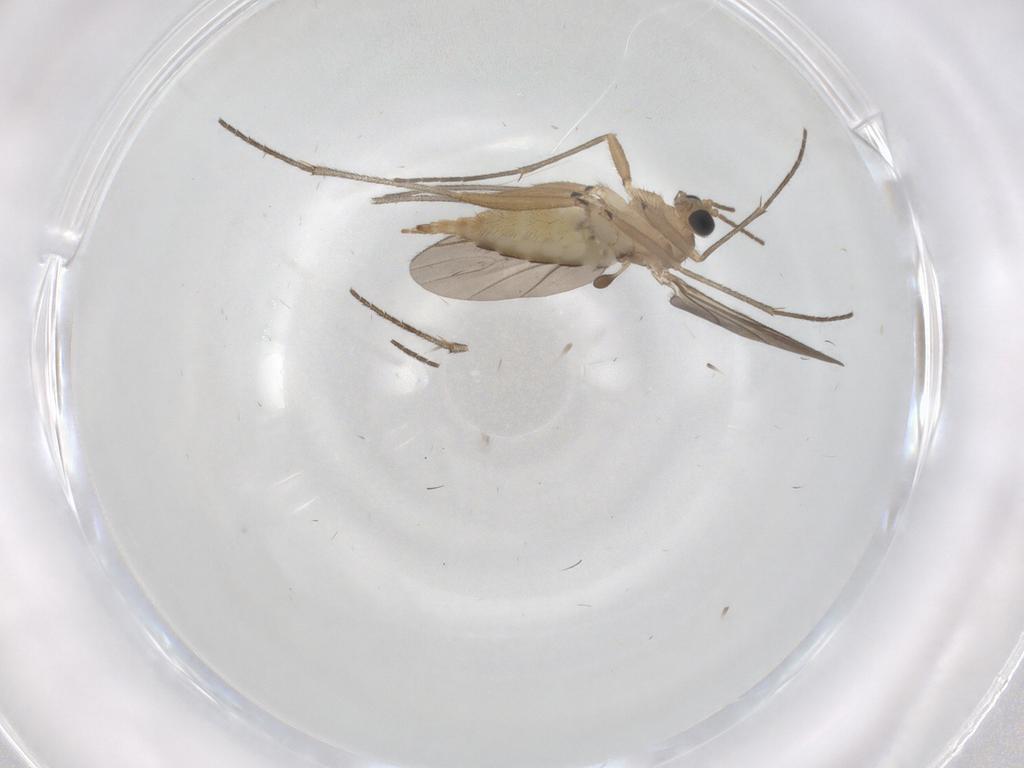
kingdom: Animalia
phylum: Arthropoda
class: Insecta
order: Diptera
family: Sciaridae
